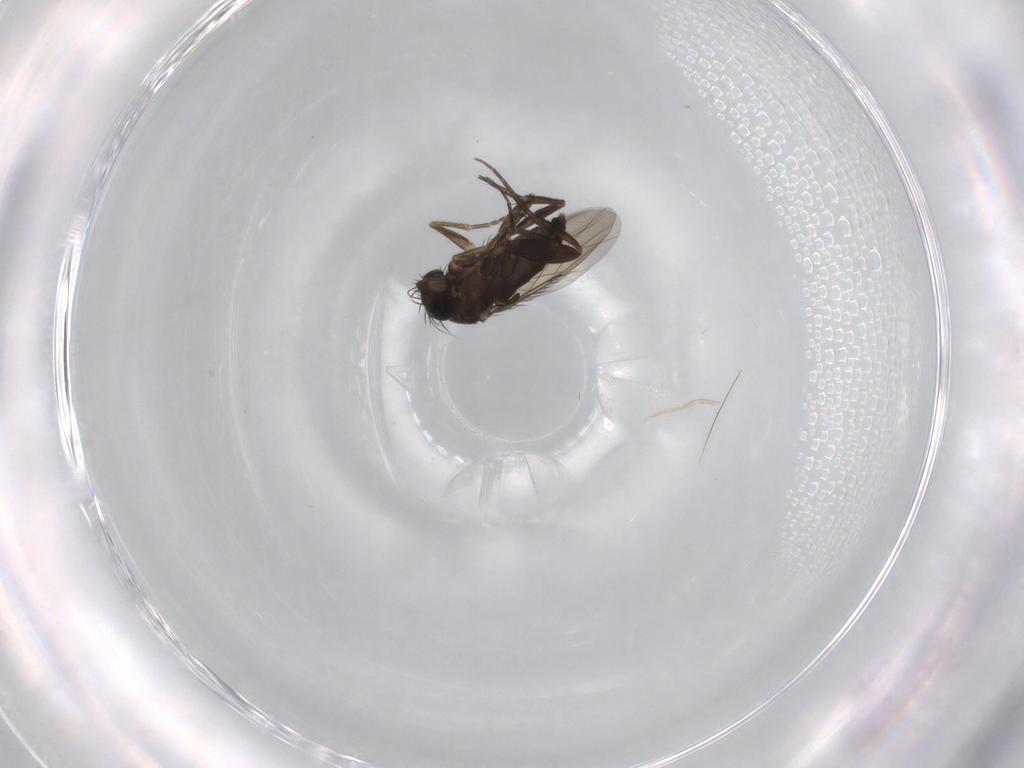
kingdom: Animalia
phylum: Arthropoda
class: Insecta
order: Diptera
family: Phoridae
